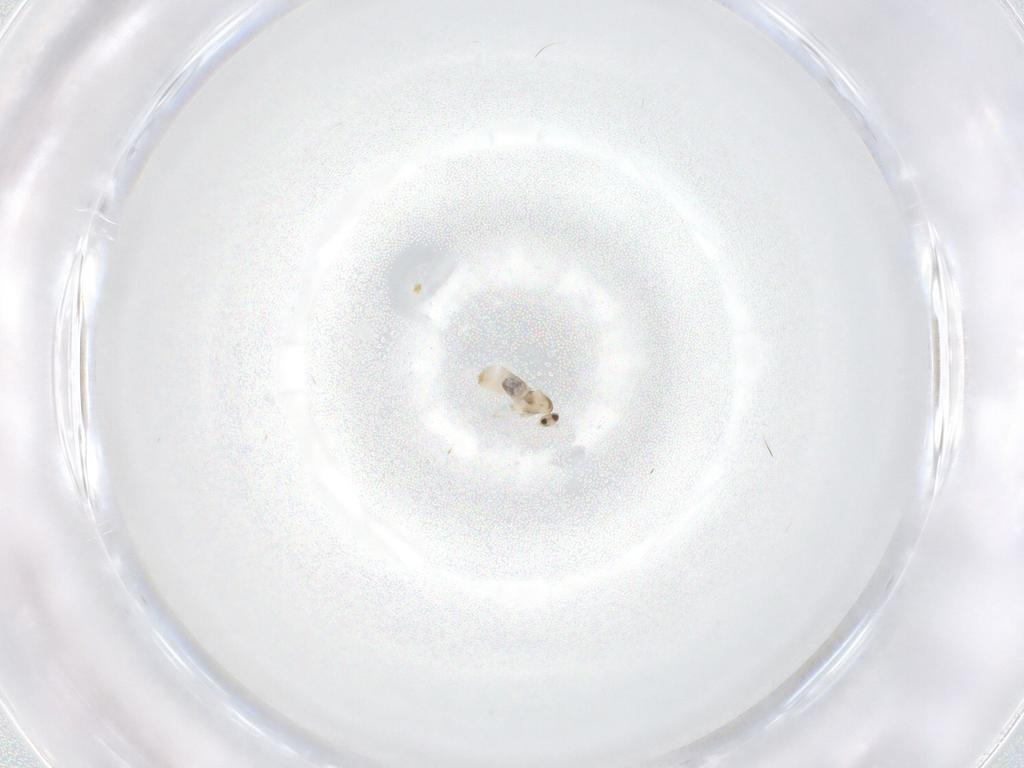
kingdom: Animalia
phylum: Arthropoda
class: Insecta
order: Diptera
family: Cecidomyiidae
